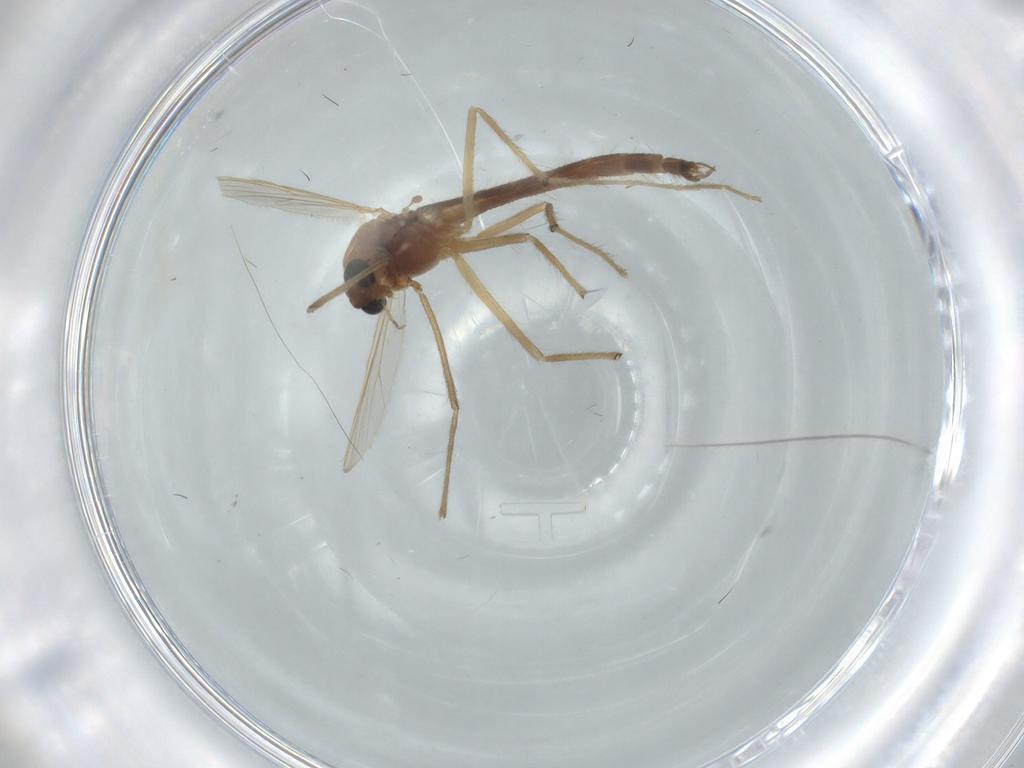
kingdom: Animalia
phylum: Arthropoda
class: Insecta
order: Diptera
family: Chironomidae
